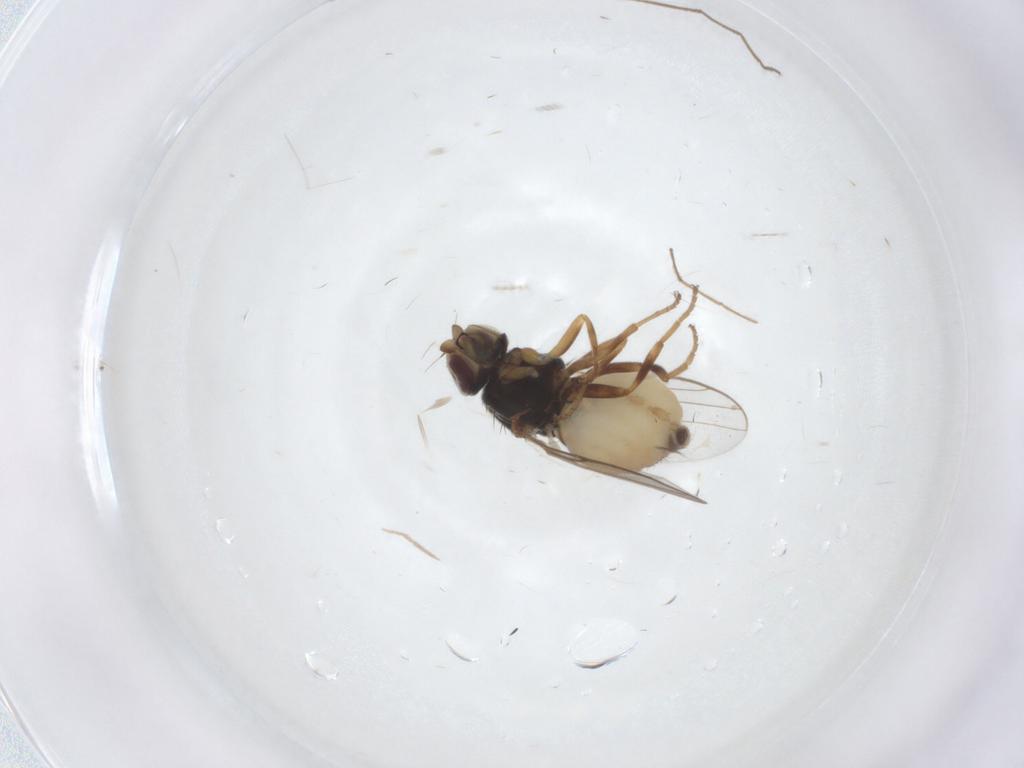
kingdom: Animalia
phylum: Arthropoda
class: Insecta
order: Diptera
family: Chloropidae
